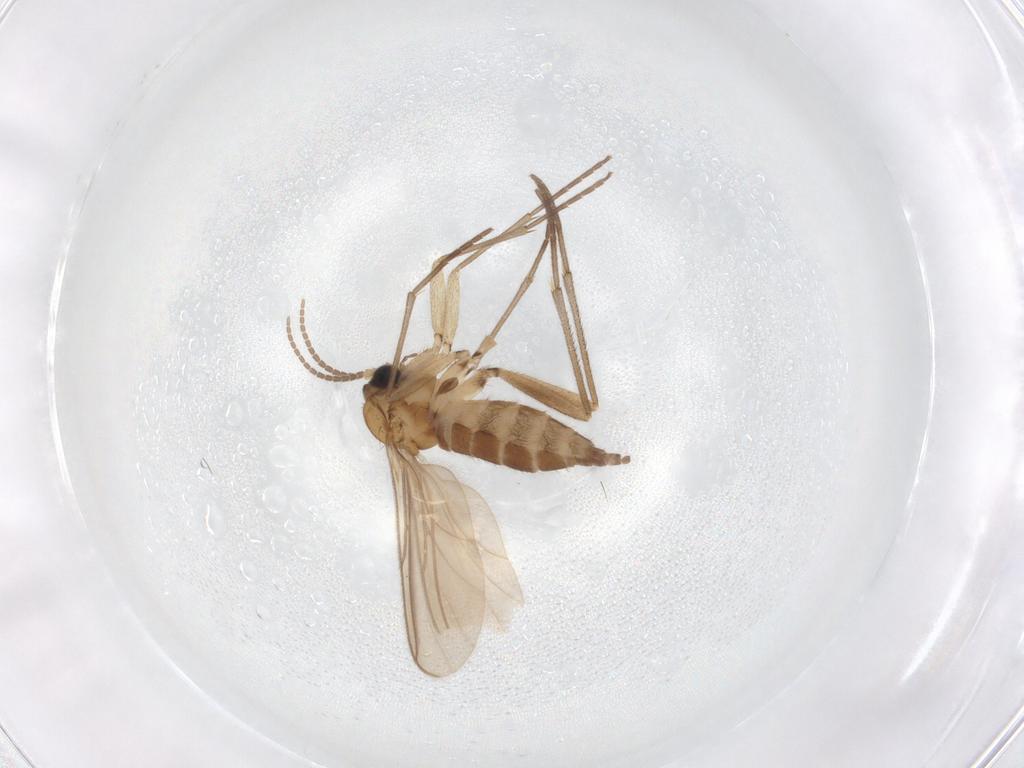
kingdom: Animalia
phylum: Arthropoda
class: Insecta
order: Diptera
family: Sciaridae
